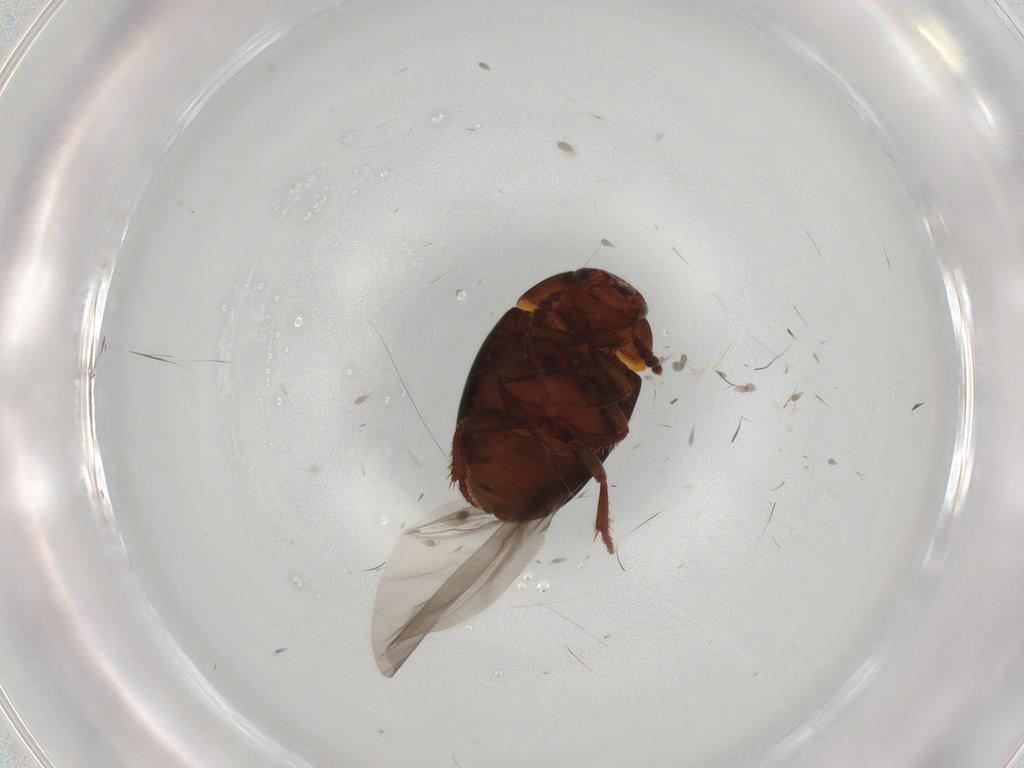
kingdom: Animalia
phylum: Arthropoda
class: Insecta
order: Coleoptera
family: Leiodidae
